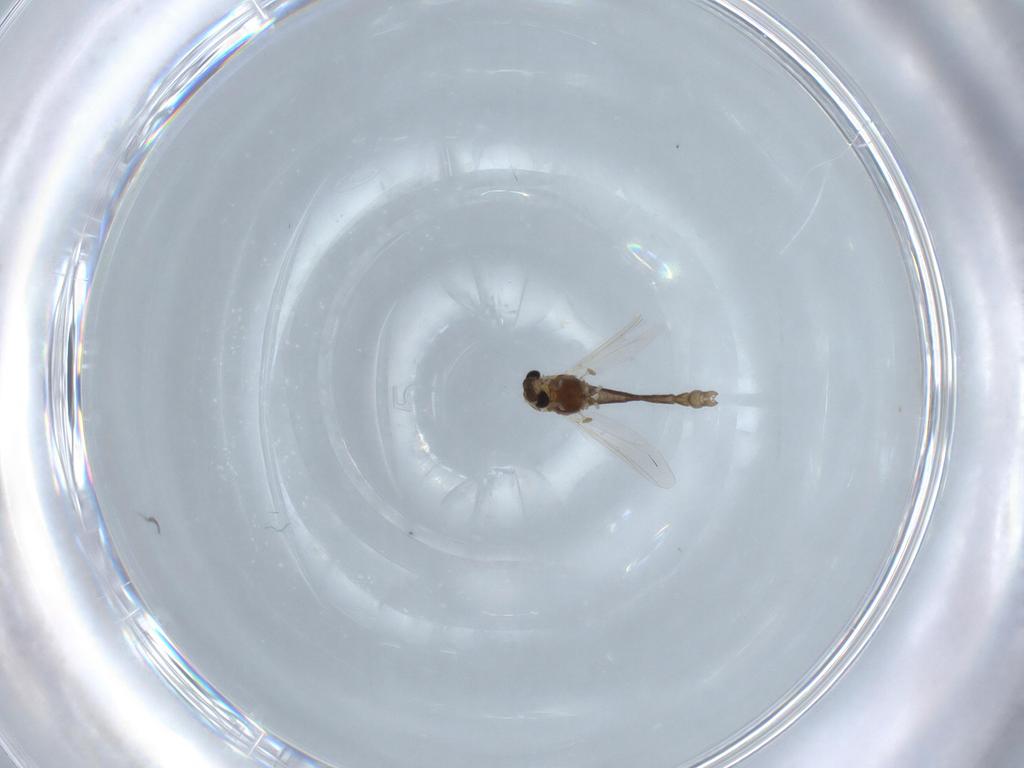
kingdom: Animalia
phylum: Arthropoda
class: Insecta
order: Diptera
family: Chironomidae
